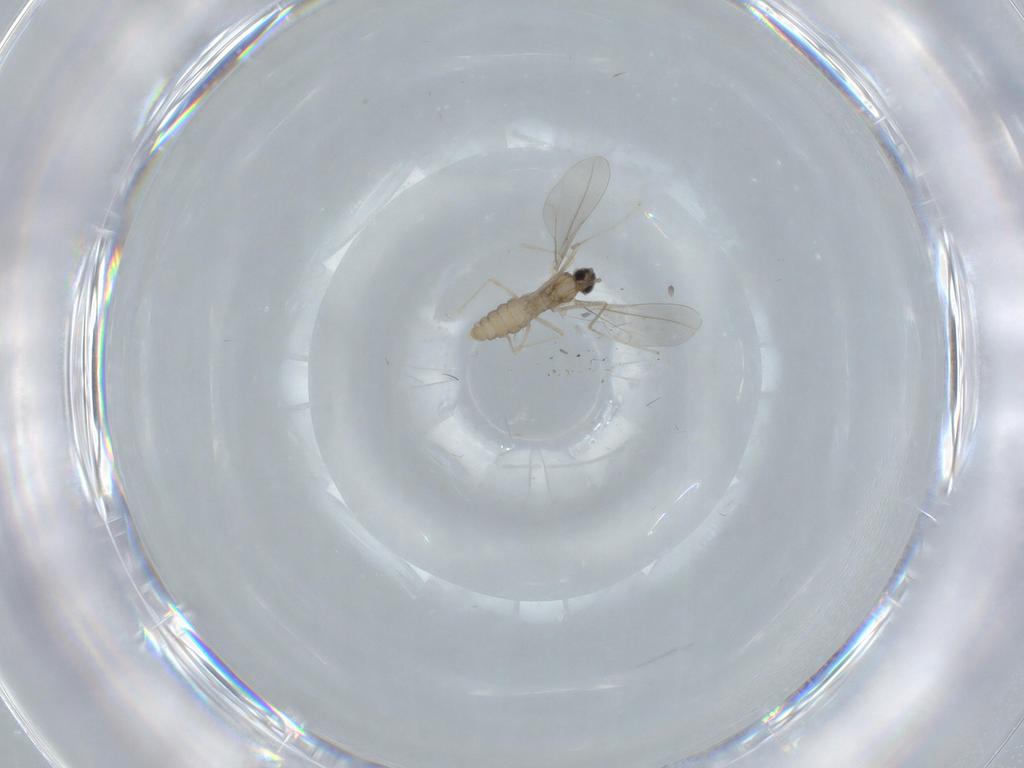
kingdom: Animalia
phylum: Arthropoda
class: Insecta
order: Diptera
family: Cecidomyiidae
